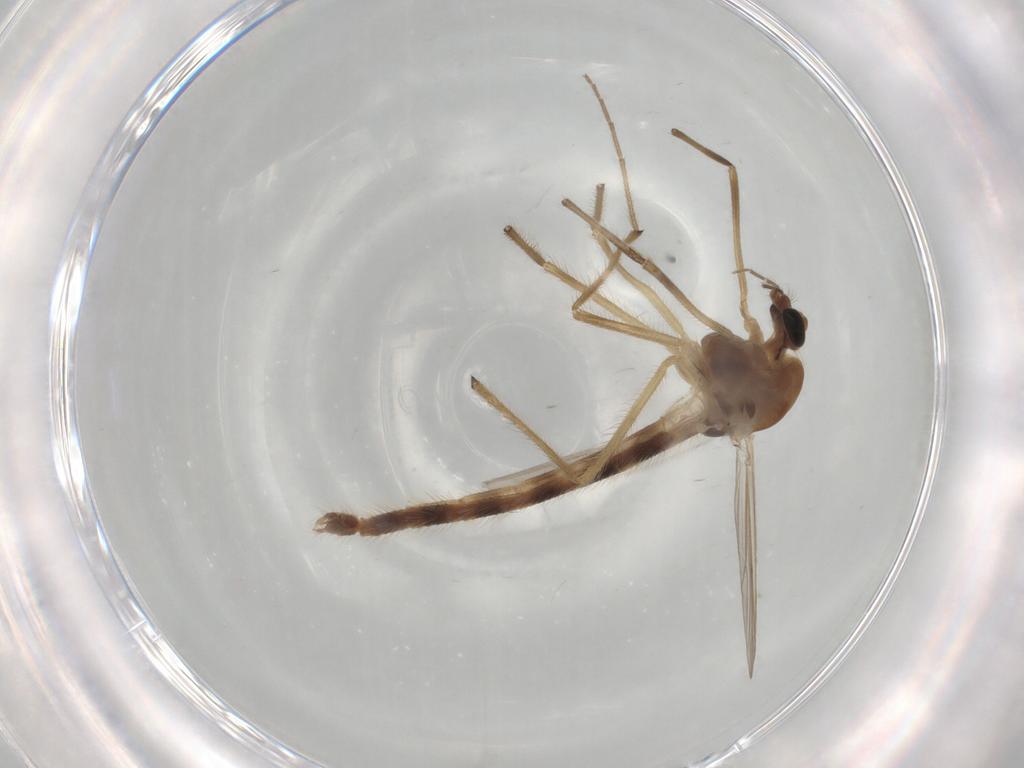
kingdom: Animalia
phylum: Arthropoda
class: Insecta
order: Diptera
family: Chironomidae
